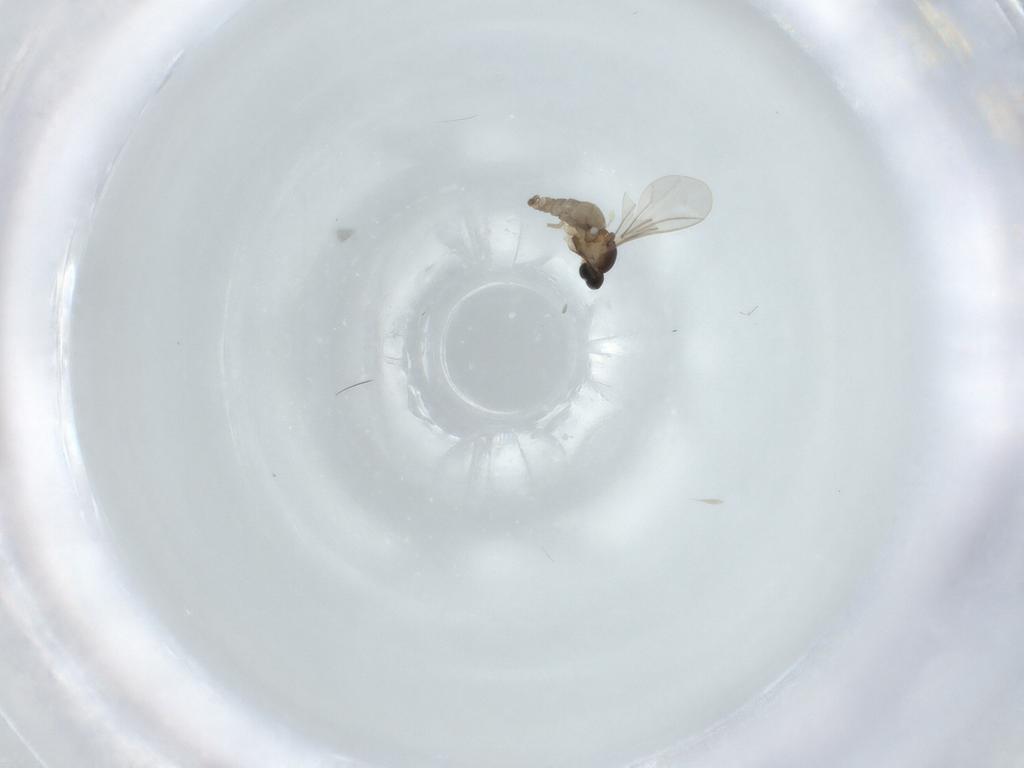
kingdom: Animalia
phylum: Arthropoda
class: Insecta
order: Diptera
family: Cecidomyiidae
